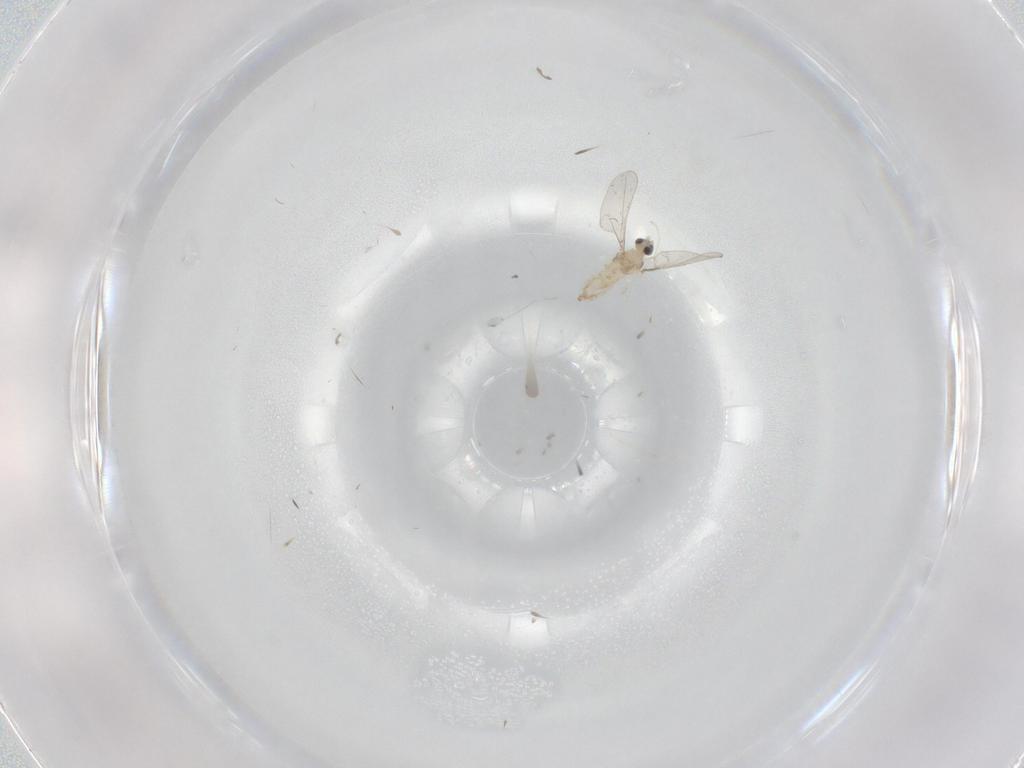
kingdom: Animalia
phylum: Arthropoda
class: Insecta
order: Diptera
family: Cecidomyiidae
